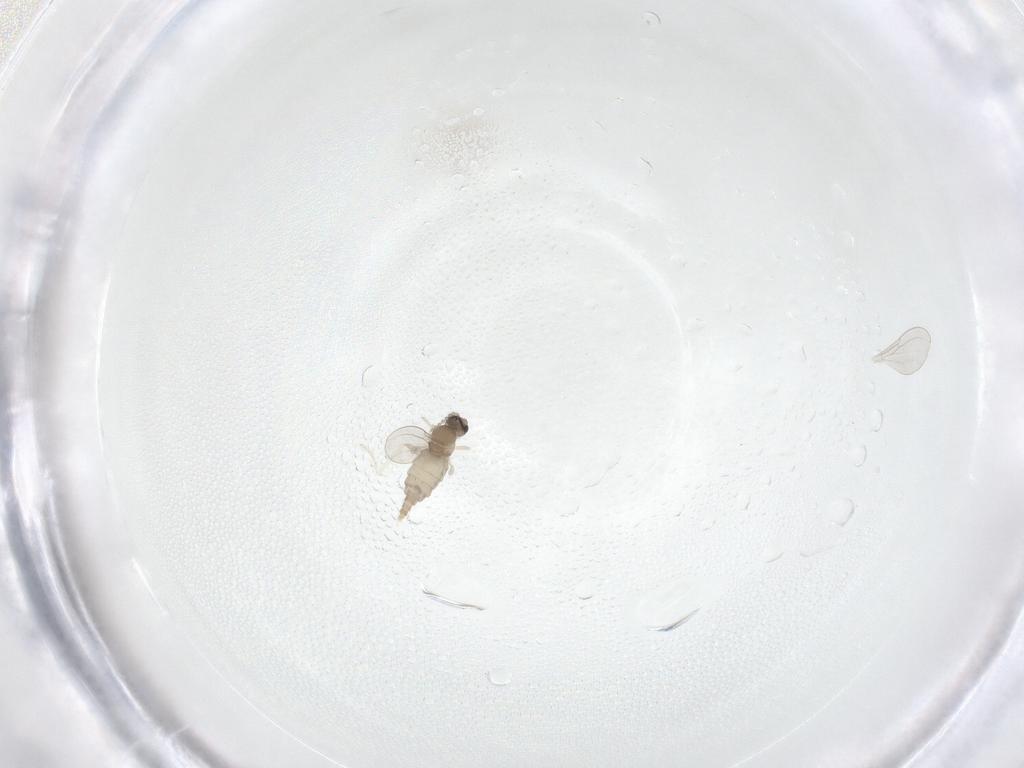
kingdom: Animalia
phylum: Arthropoda
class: Insecta
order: Diptera
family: Cecidomyiidae
